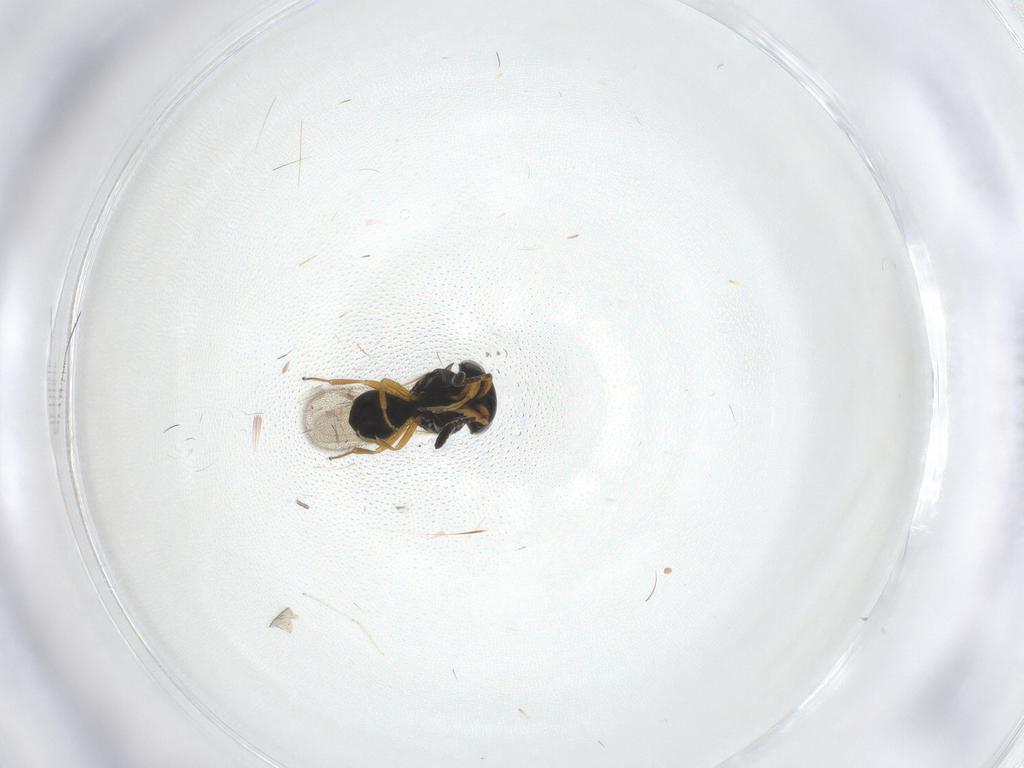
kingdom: Animalia
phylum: Arthropoda
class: Insecta
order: Hymenoptera
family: Scelionidae
